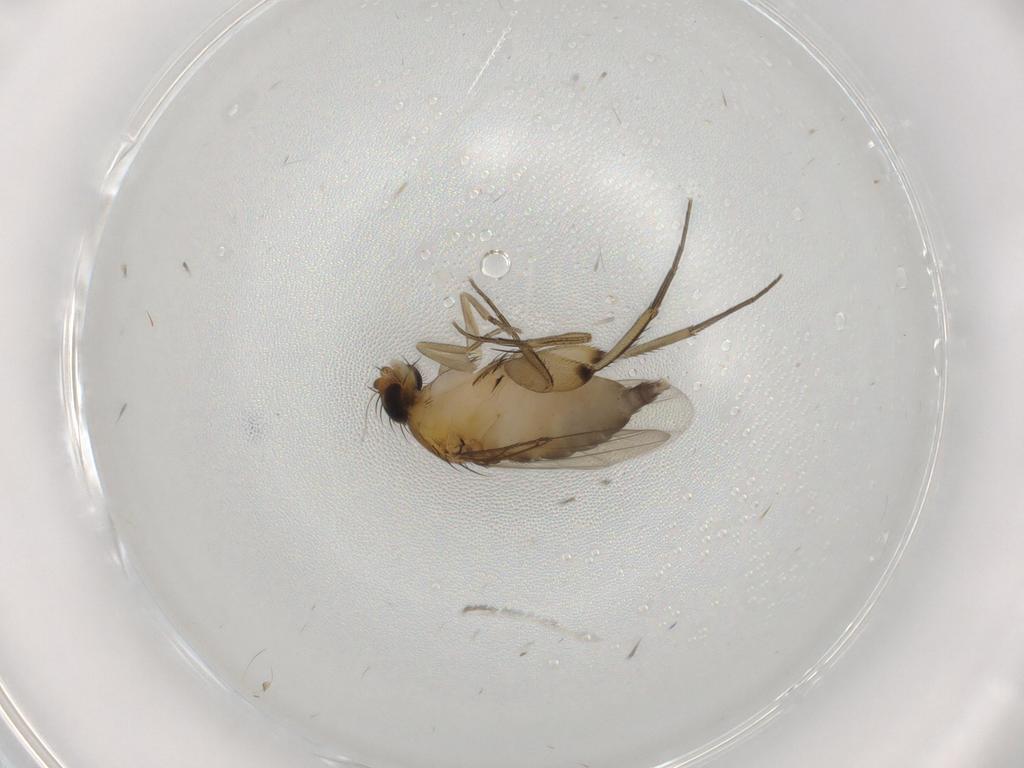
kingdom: Animalia
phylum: Arthropoda
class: Insecta
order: Diptera
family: Phoridae
